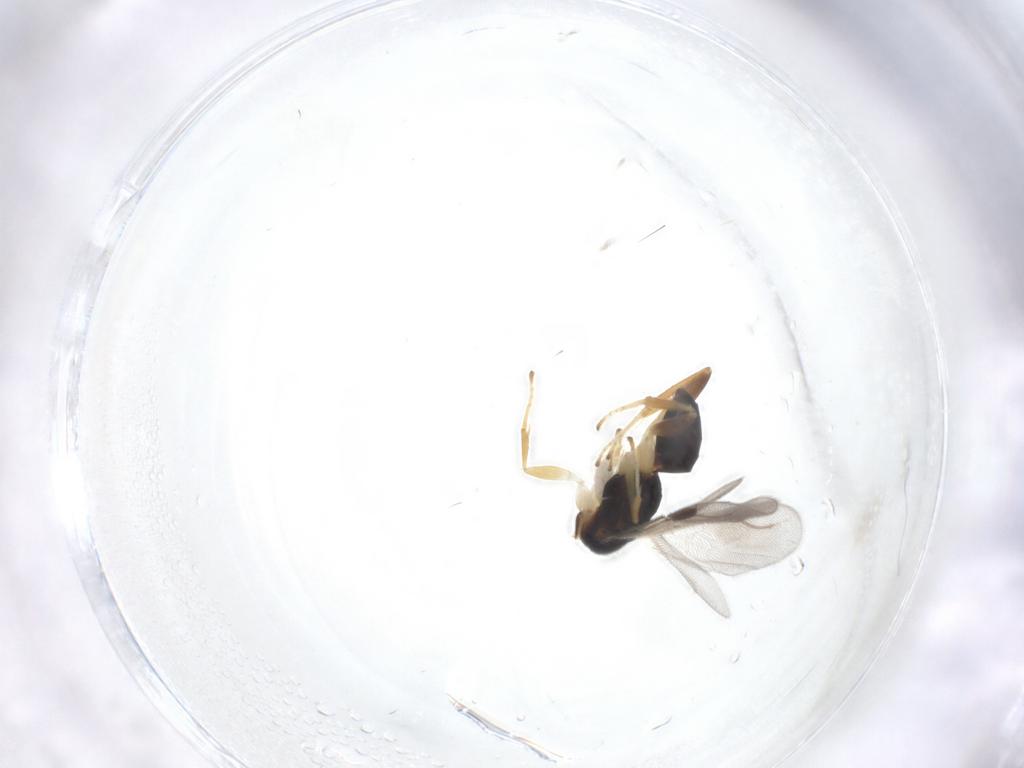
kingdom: Animalia
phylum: Arthropoda
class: Insecta
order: Hymenoptera
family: Dryinidae
